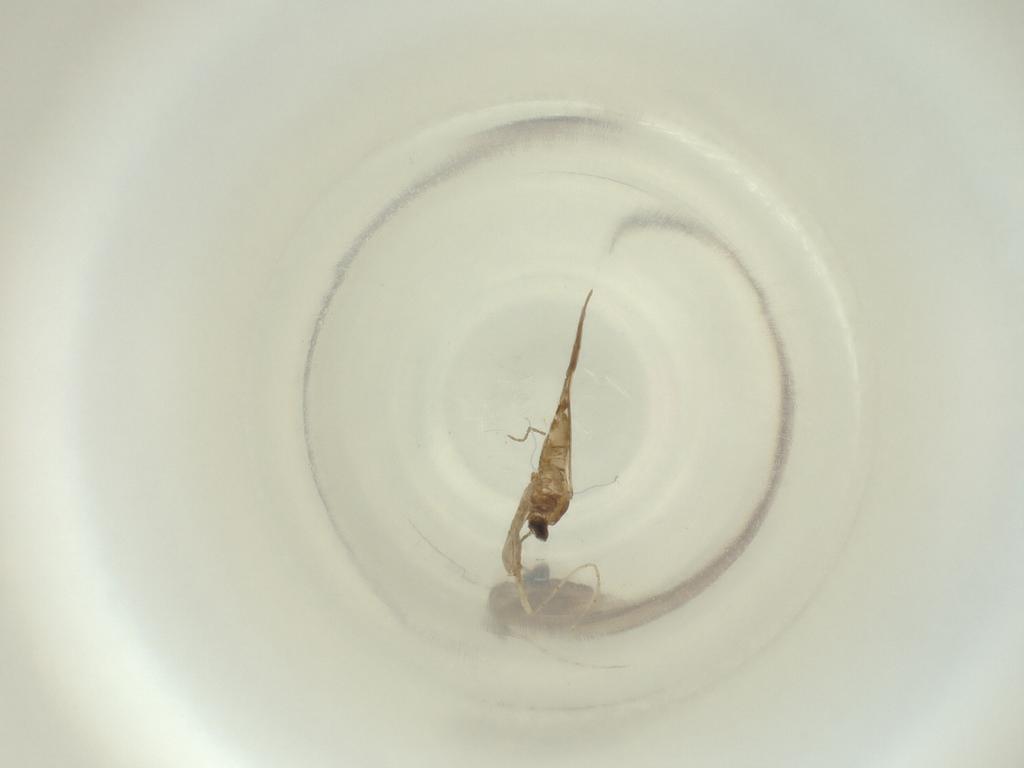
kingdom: Animalia
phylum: Arthropoda
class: Insecta
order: Diptera
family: Cecidomyiidae
